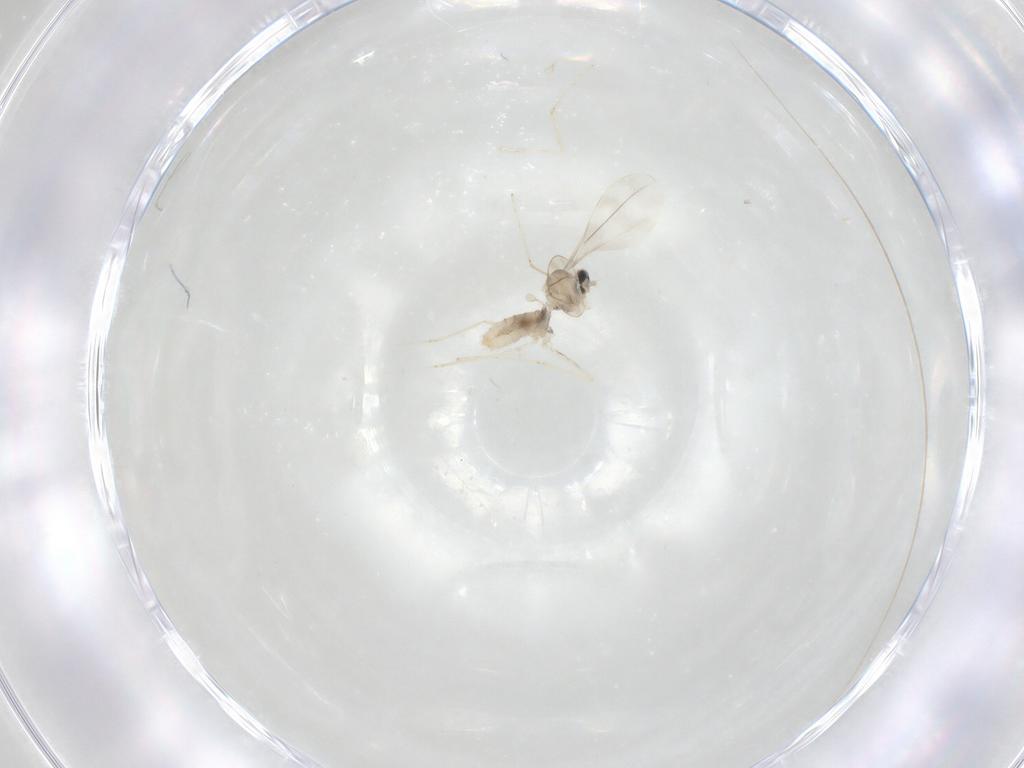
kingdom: Animalia
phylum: Arthropoda
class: Insecta
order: Diptera
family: Cecidomyiidae
